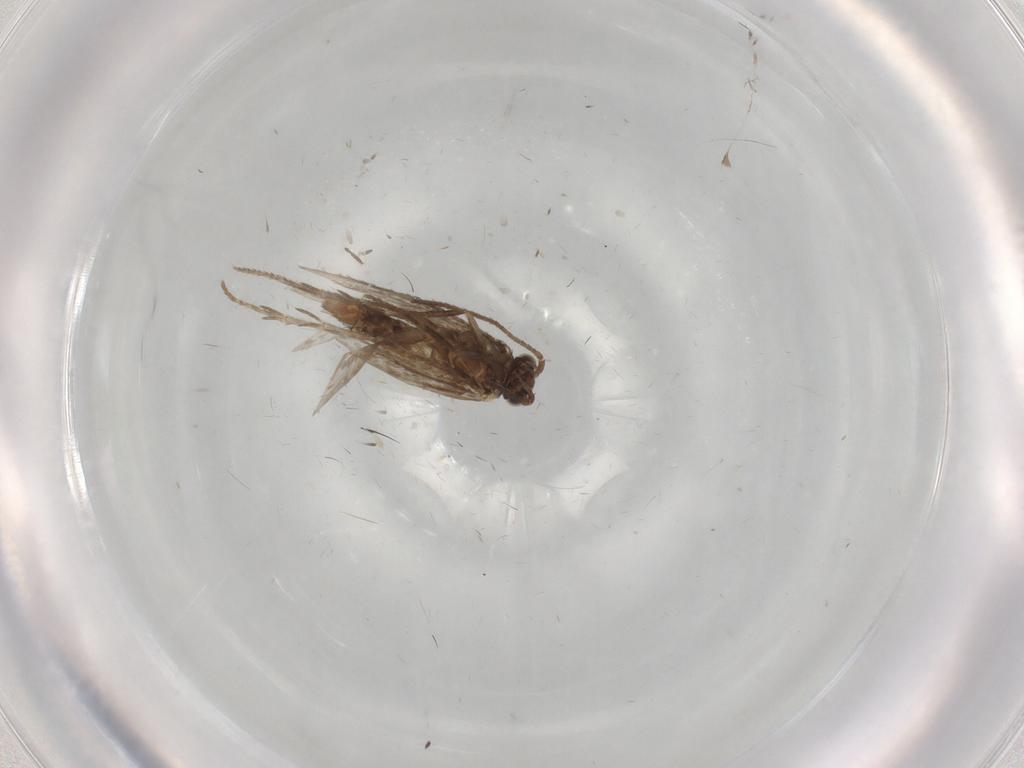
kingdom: Animalia
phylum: Arthropoda
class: Insecta
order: Lepidoptera
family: Nepticulidae
